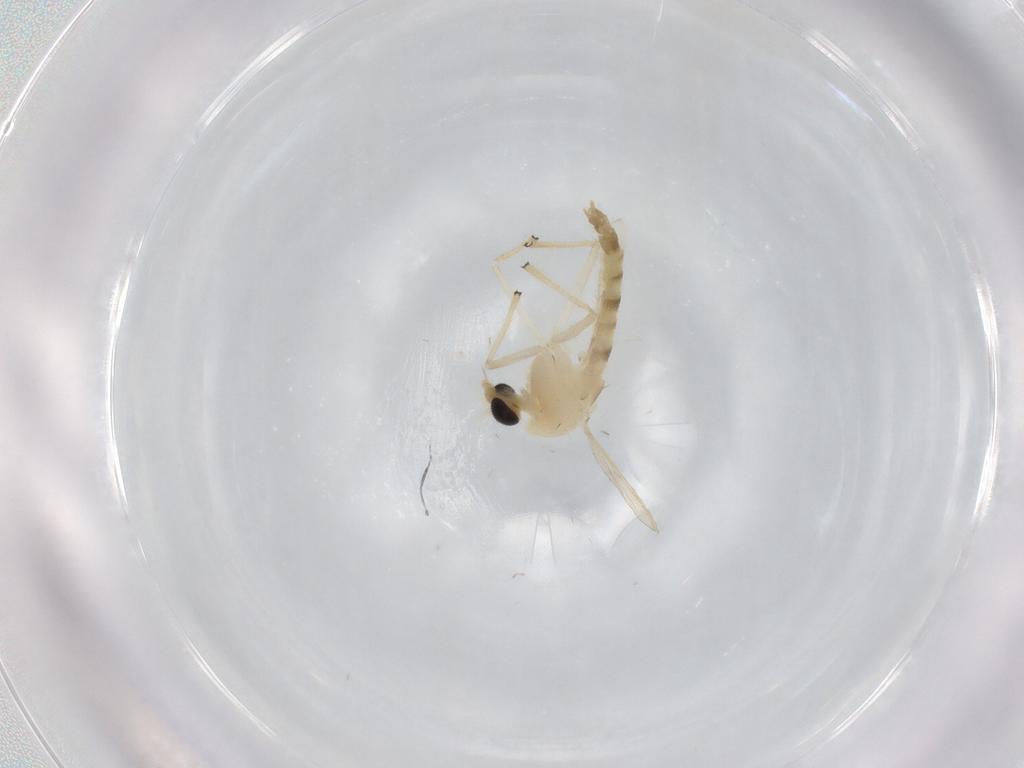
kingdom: Animalia
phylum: Arthropoda
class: Insecta
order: Diptera
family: Chironomidae
